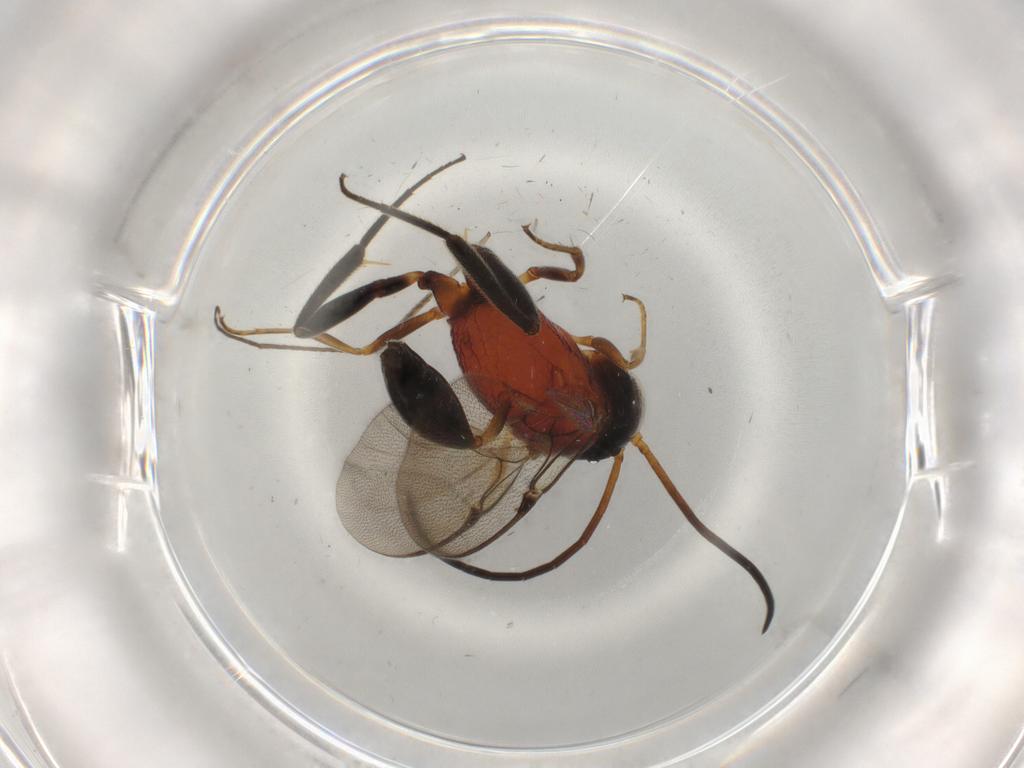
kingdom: Animalia
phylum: Arthropoda
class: Insecta
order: Hymenoptera
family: Evaniidae
